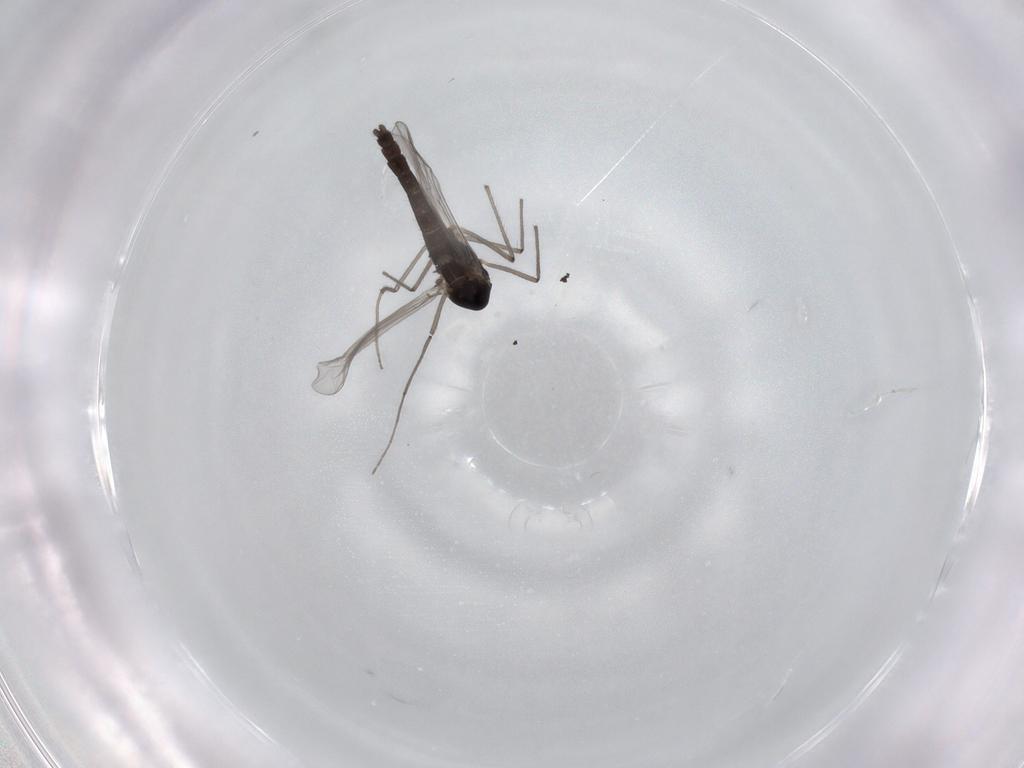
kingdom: Animalia
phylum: Arthropoda
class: Insecta
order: Diptera
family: Chironomidae
